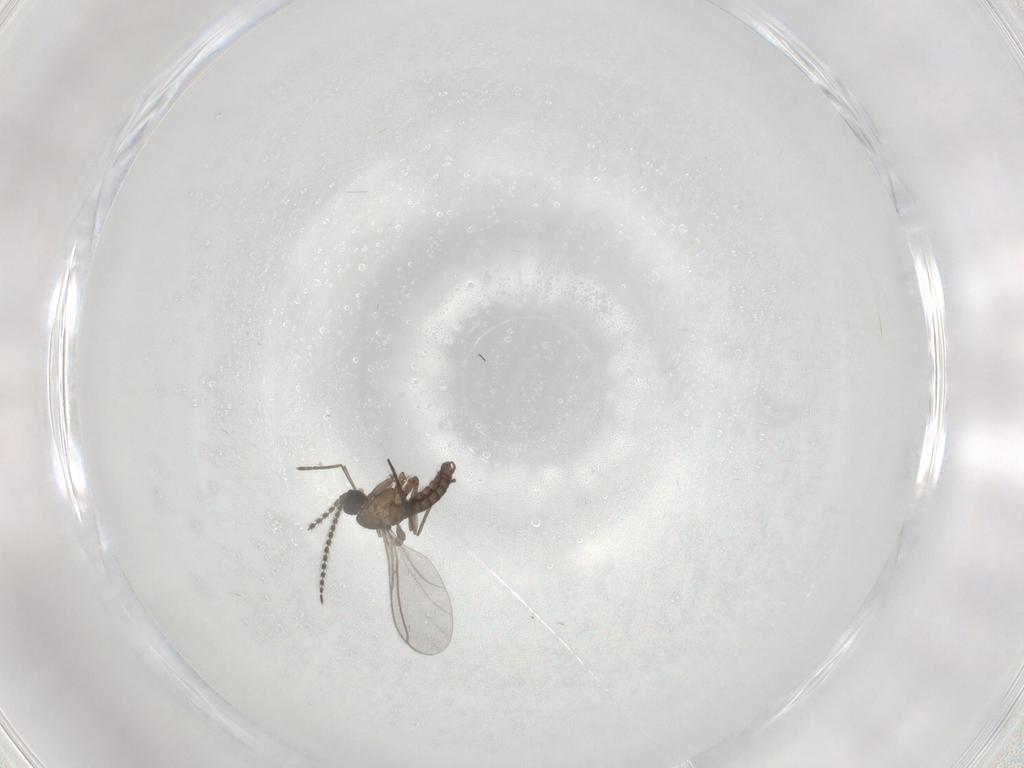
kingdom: Animalia
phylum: Arthropoda
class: Insecta
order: Diptera
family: Ceratopogonidae
